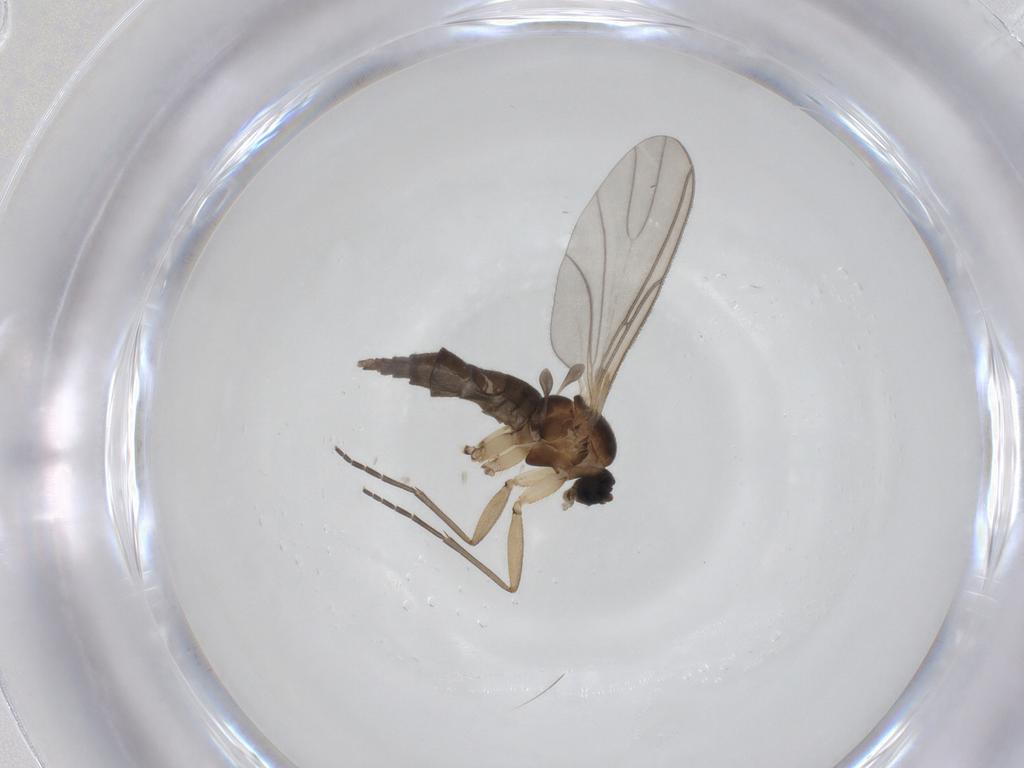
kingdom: Animalia
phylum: Arthropoda
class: Insecta
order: Diptera
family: Sciaridae
